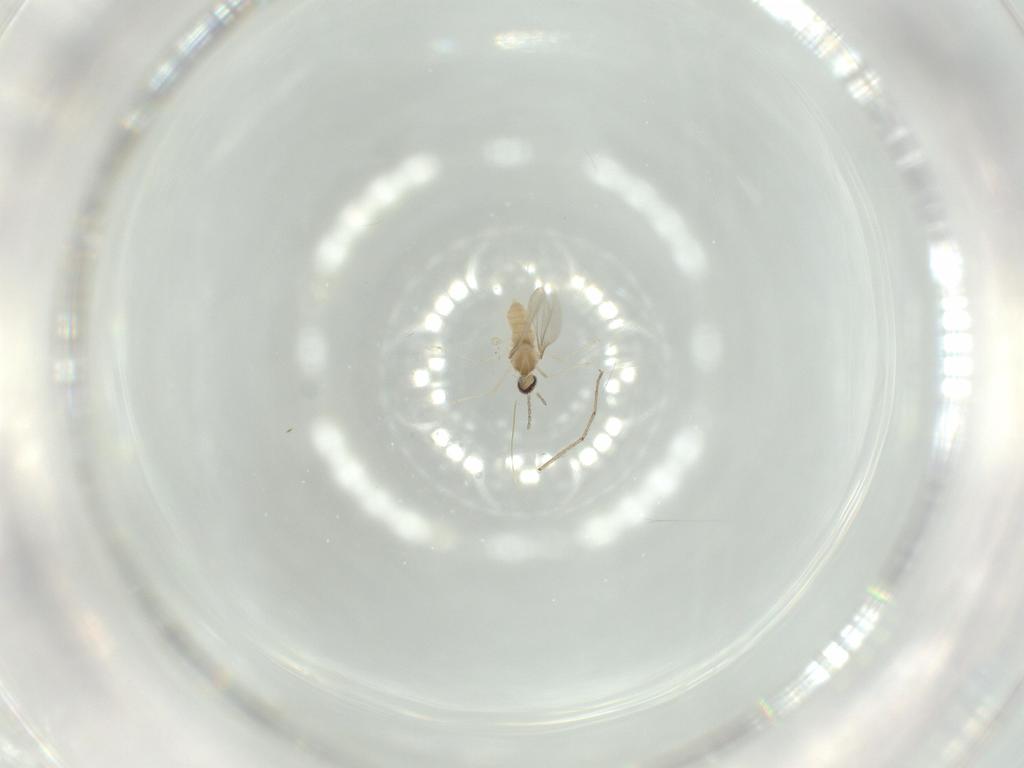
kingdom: Animalia
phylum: Arthropoda
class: Insecta
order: Diptera
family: Cecidomyiidae
